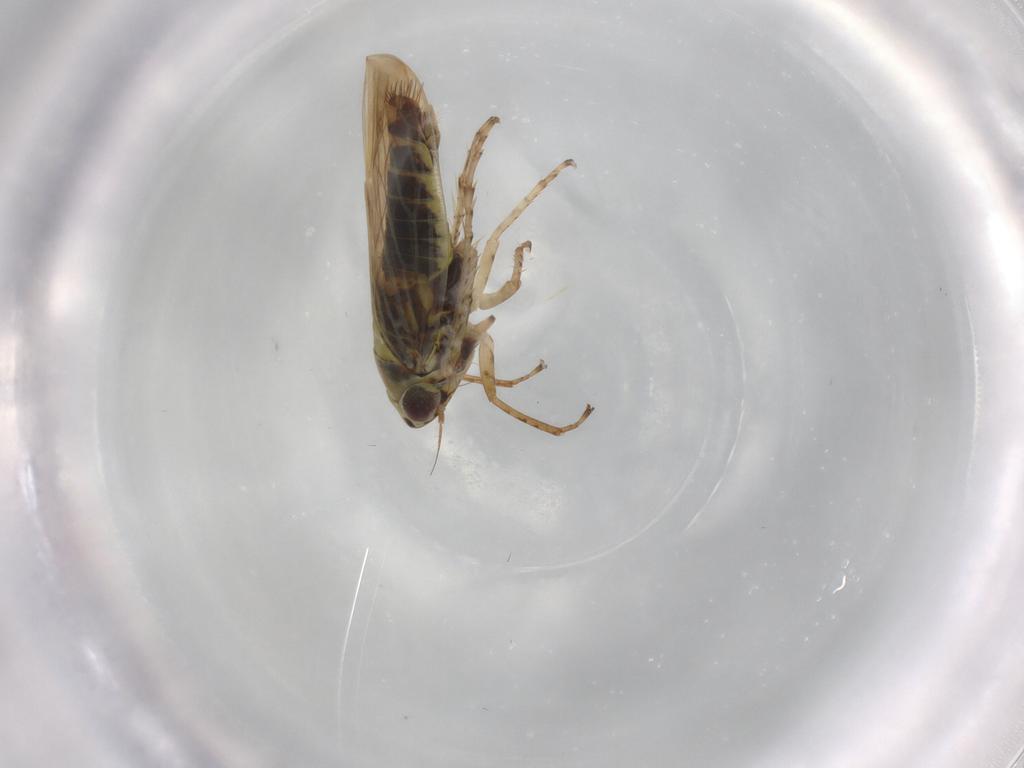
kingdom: Animalia
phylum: Arthropoda
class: Insecta
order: Hemiptera
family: Cicadellidae
